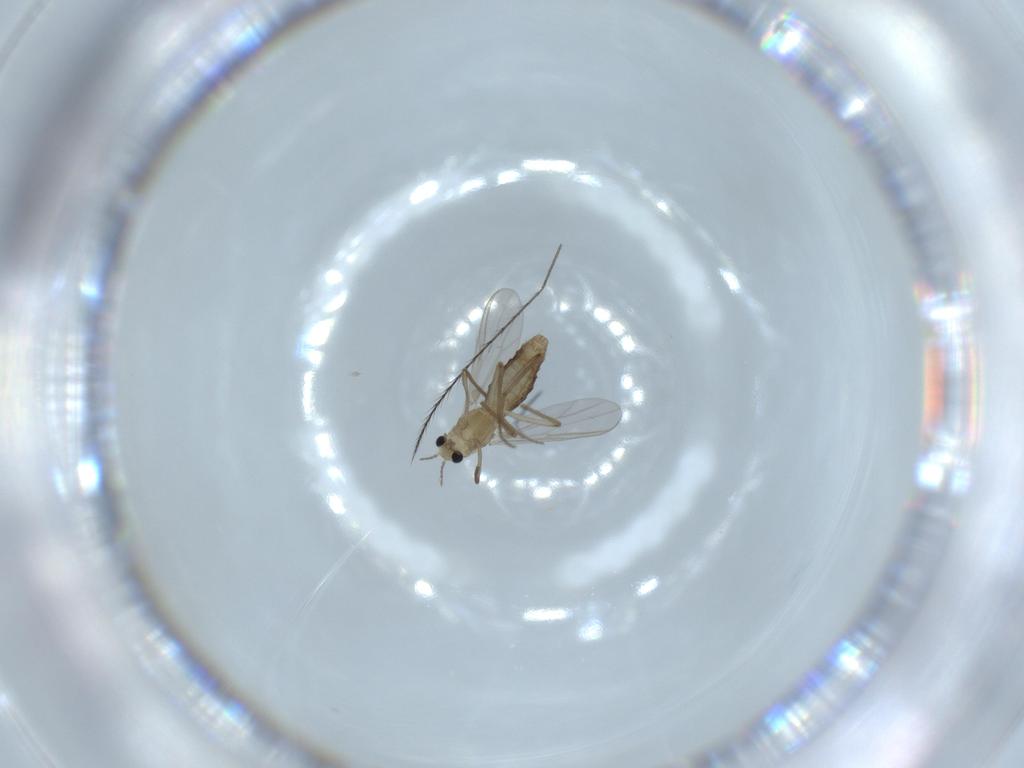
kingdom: Animalia
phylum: Arthropoda
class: Insecta
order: Diptera
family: Chironomidae
